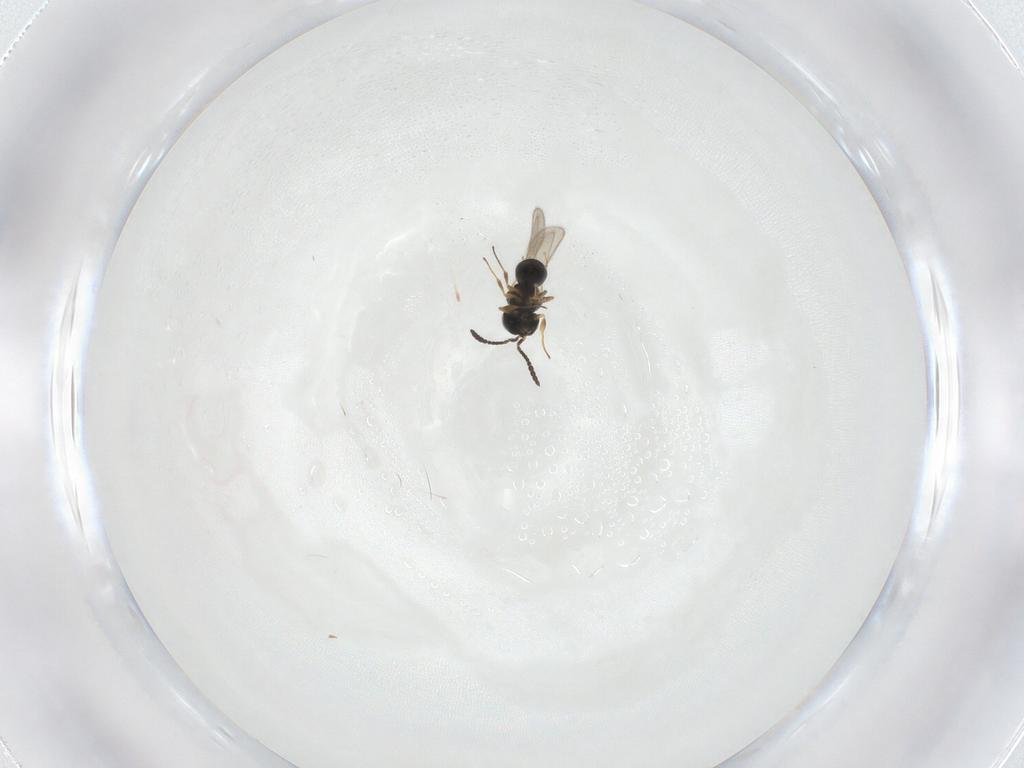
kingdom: Animalia
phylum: Arthropoda
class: Insecta
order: Hymenoptera
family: Scelionidae
